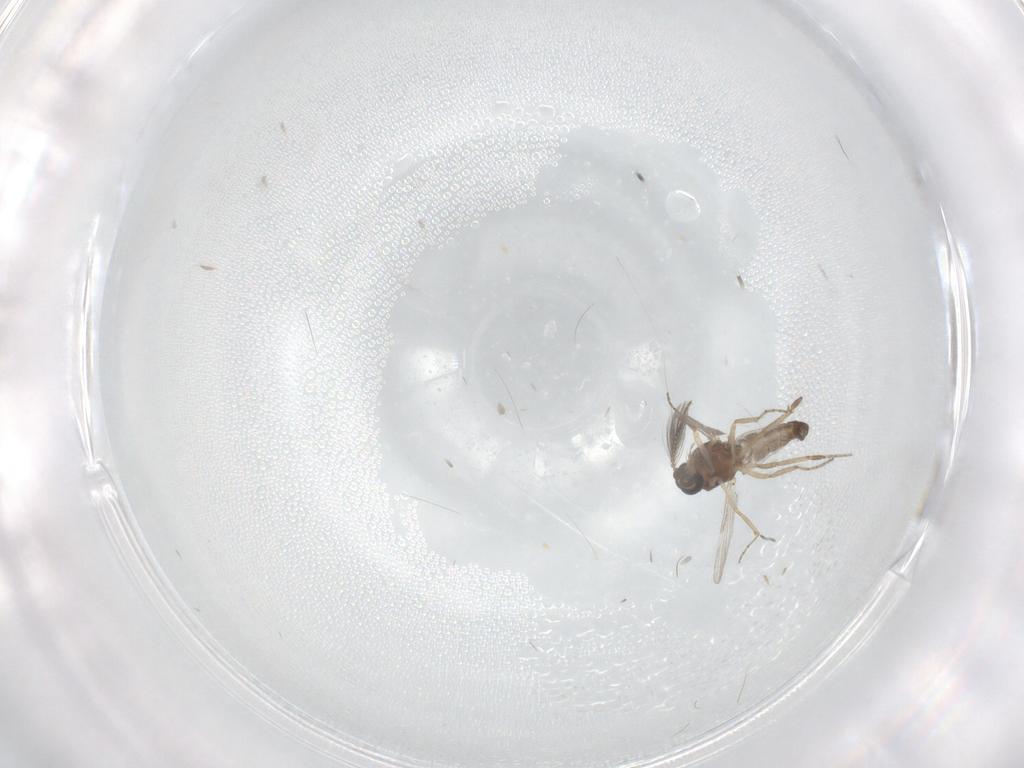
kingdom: Animalia
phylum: Arthropoda
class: Insecta
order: Diptera
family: Ceratopogonidae
